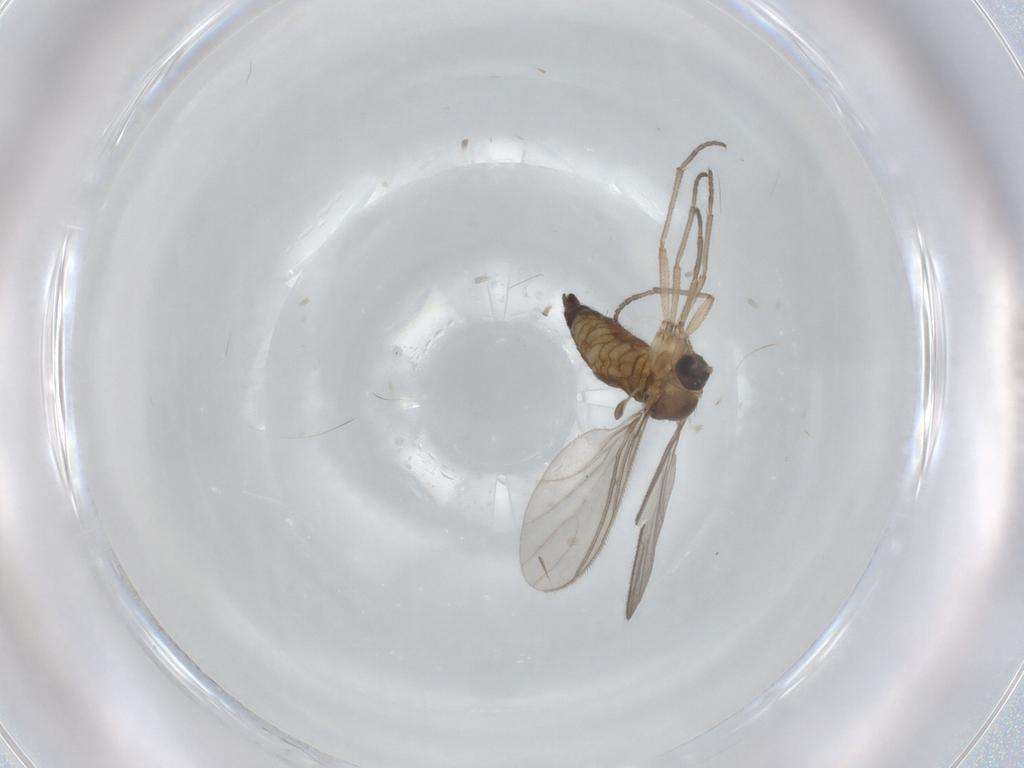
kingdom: Animalia
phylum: Arthropoda
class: Insecta
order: Diptera
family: Sciaridae
